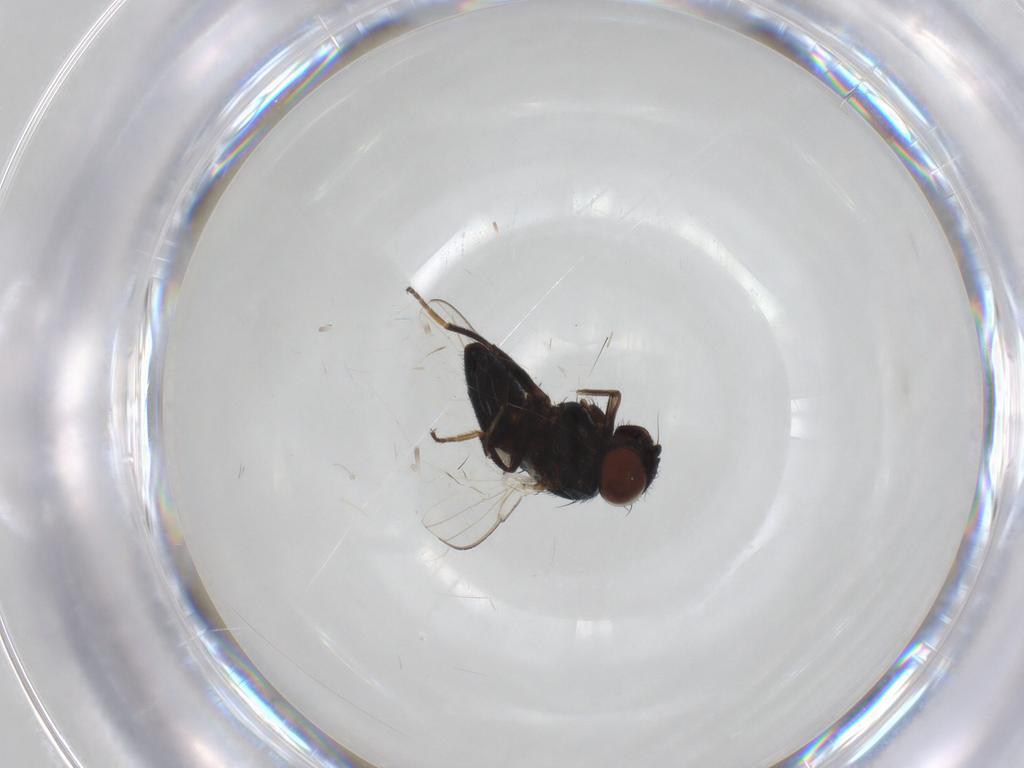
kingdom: Animalia
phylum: Arthropoda
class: Insecta
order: Diptera
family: Milichiidae
